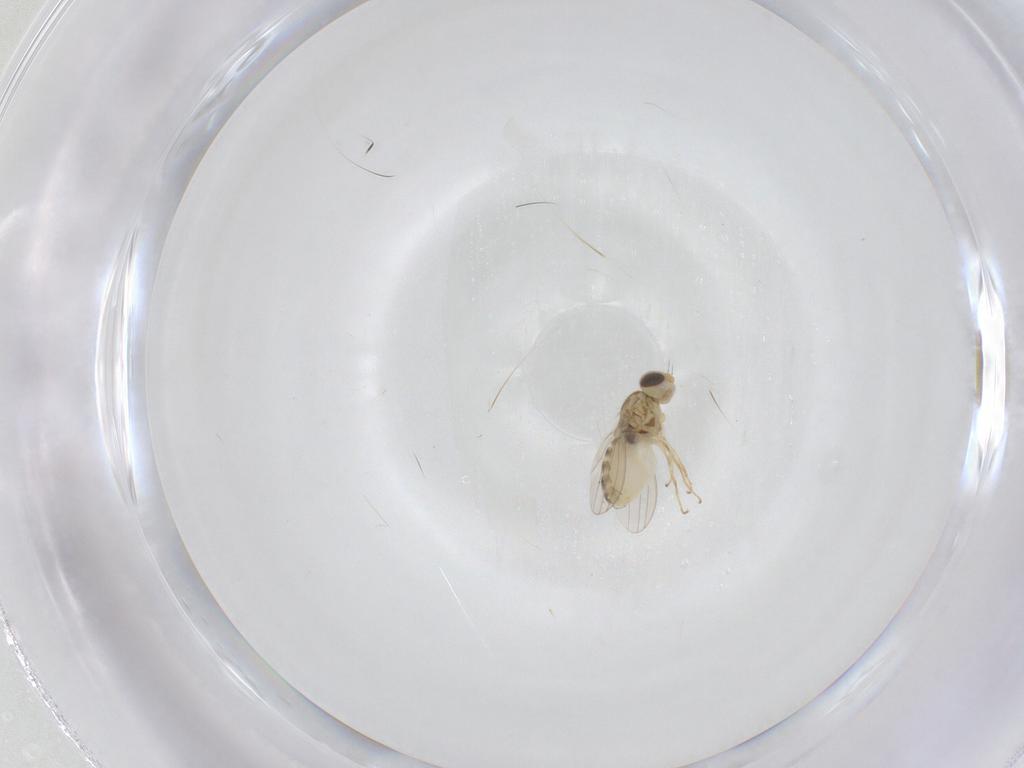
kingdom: Animalia
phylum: Arthropoda
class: Insecta
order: Diptera
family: Chyromyidae
